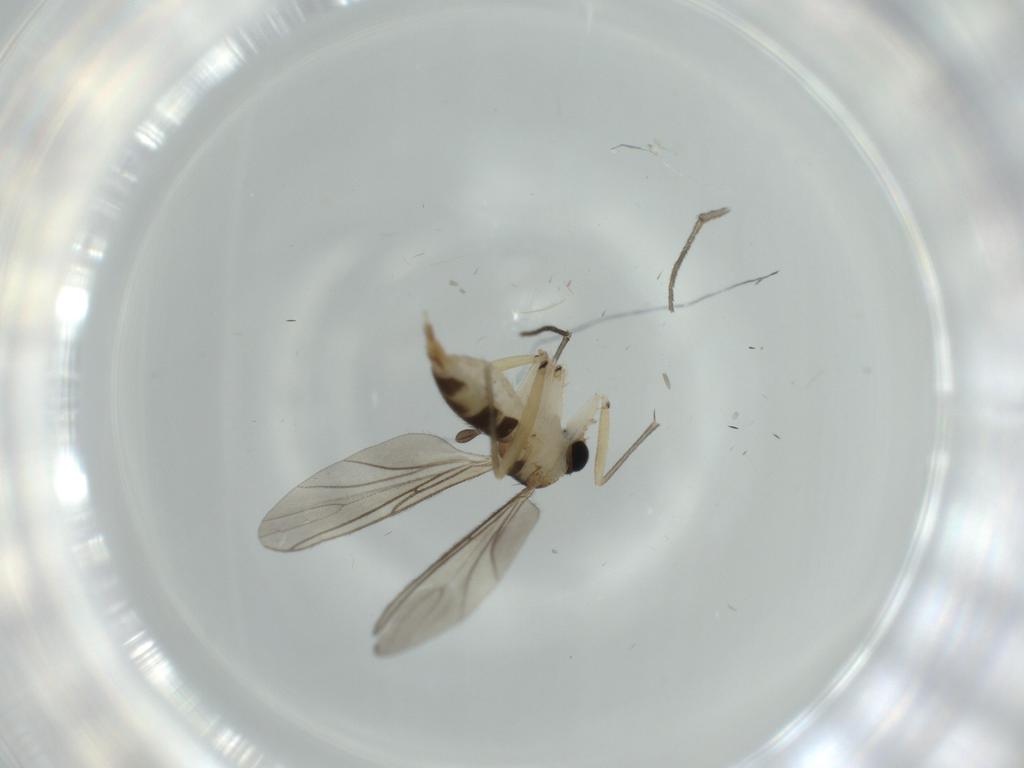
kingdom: Animalia
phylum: Arthropoda
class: Insecta
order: Diptera
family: Sciaridae
